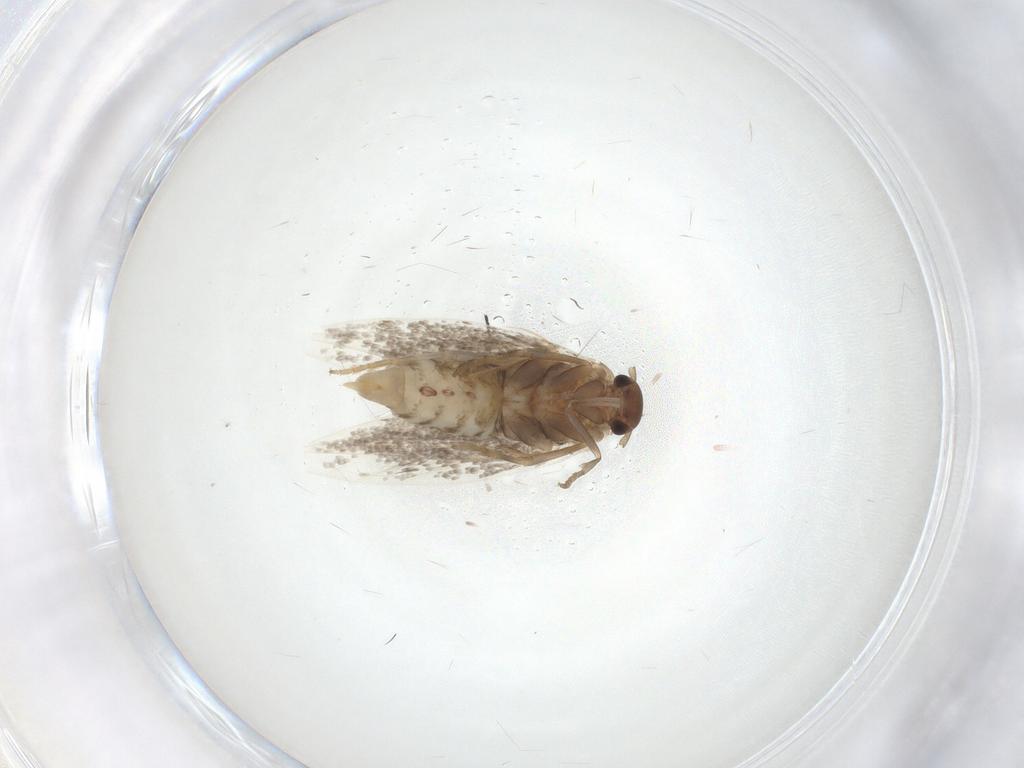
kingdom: Animalia
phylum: Arthropoda
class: Insecta
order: Lepidoptera
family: Elachistidae
